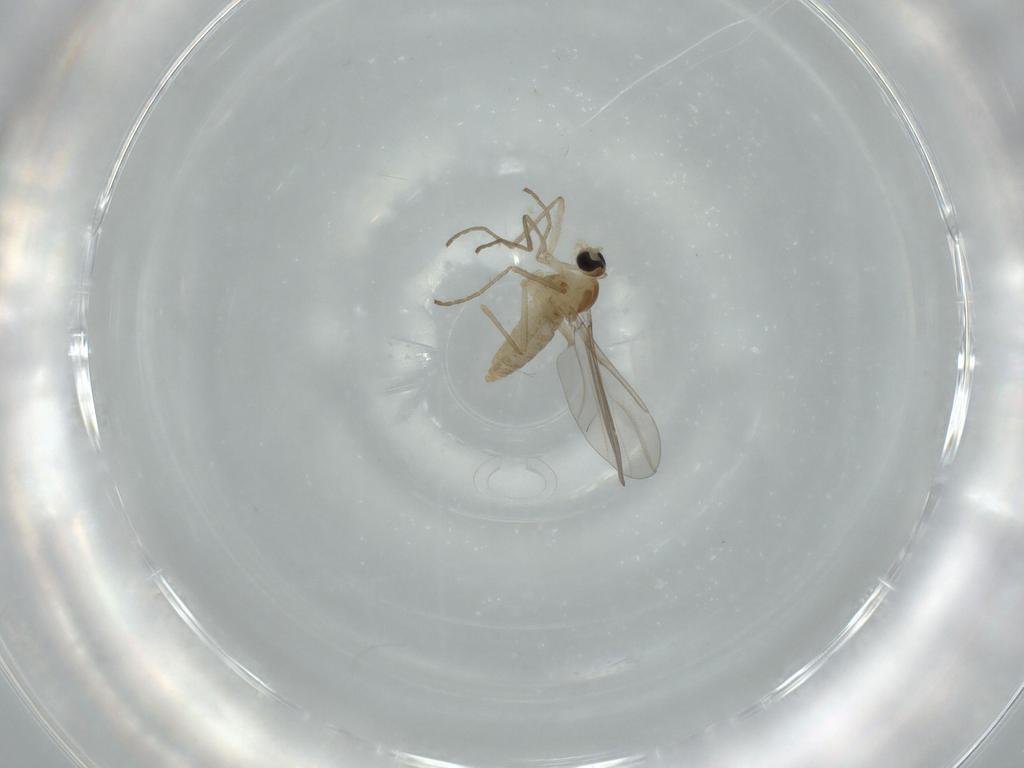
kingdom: Animalia
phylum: Arthropoda
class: Insecta
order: Diptera
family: Cecidomyiidae
